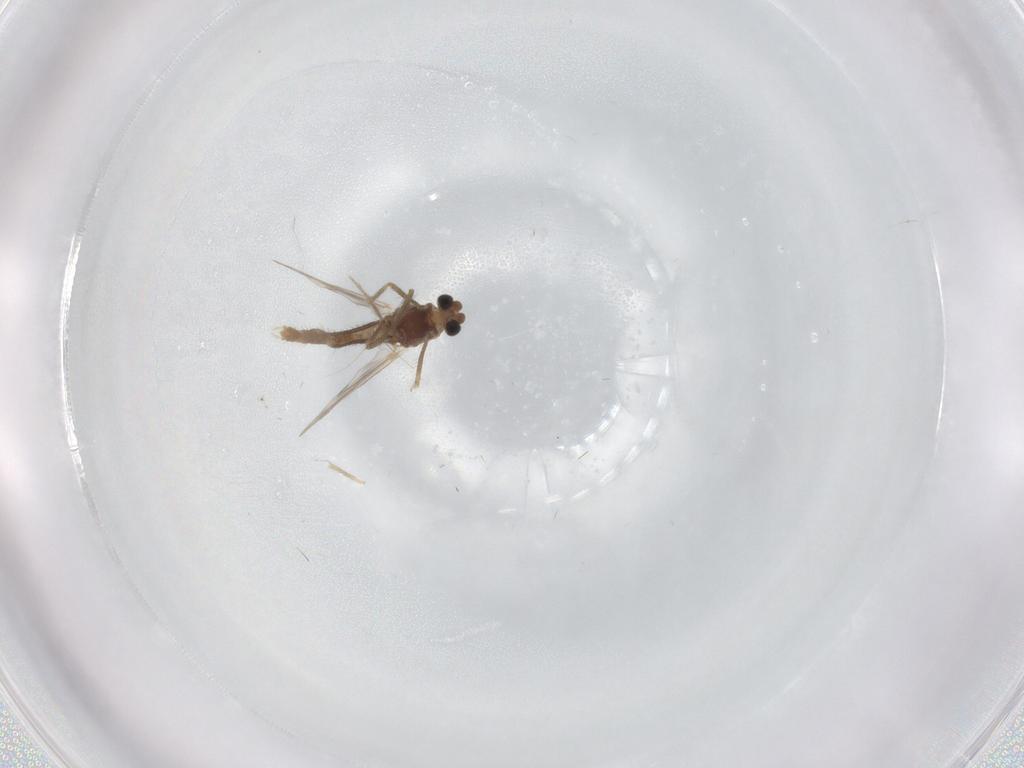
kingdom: Animalia
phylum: Arthropoda
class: Insecta
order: Diptera
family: Chironomidae
